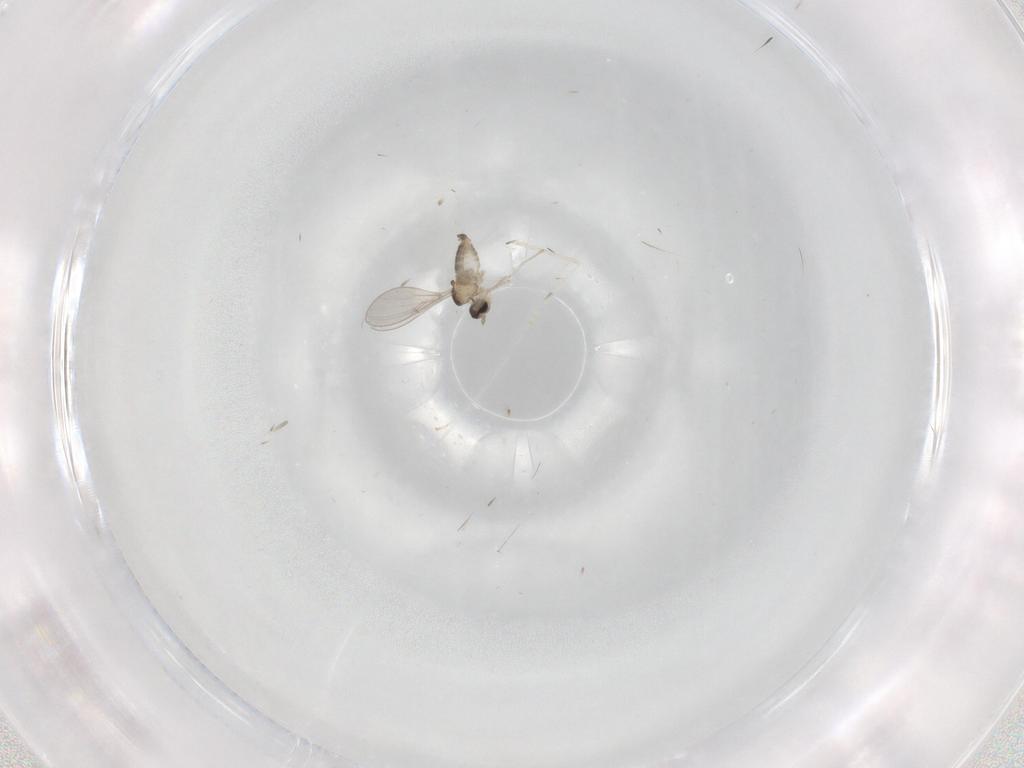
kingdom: Animalia
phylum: Arthropoda
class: Insecta
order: Diptera
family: Cecidomyiidae
